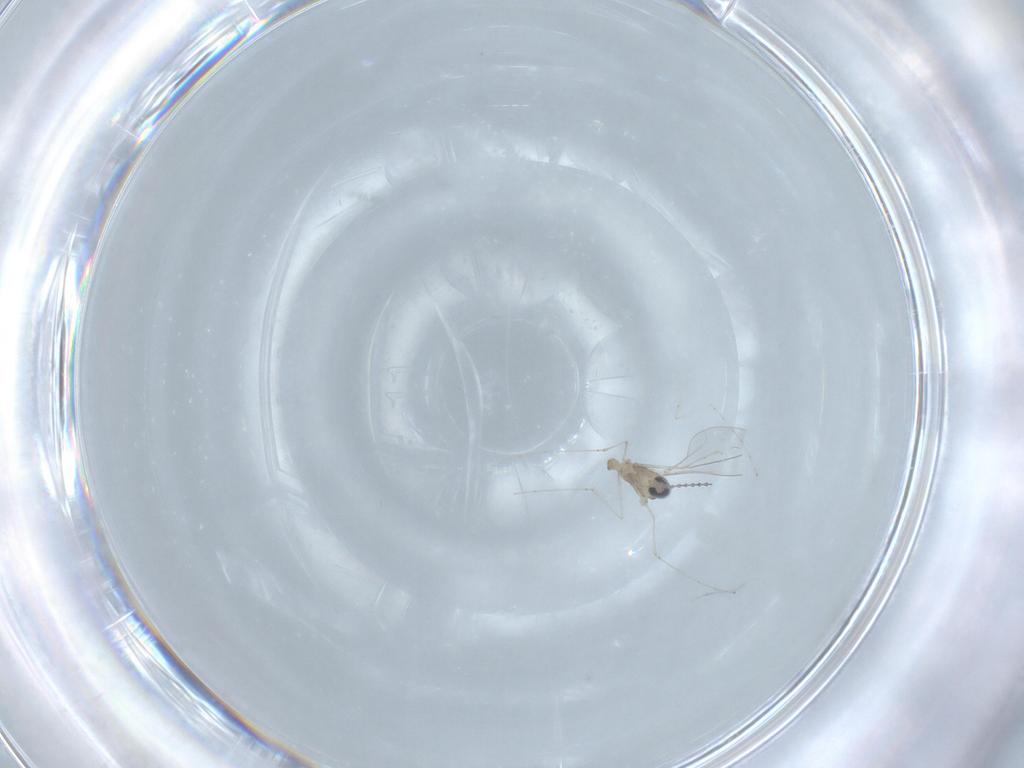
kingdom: Animalia
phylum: Arthropoda
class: Insecta
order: Diptera
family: Cecidomyiidae
